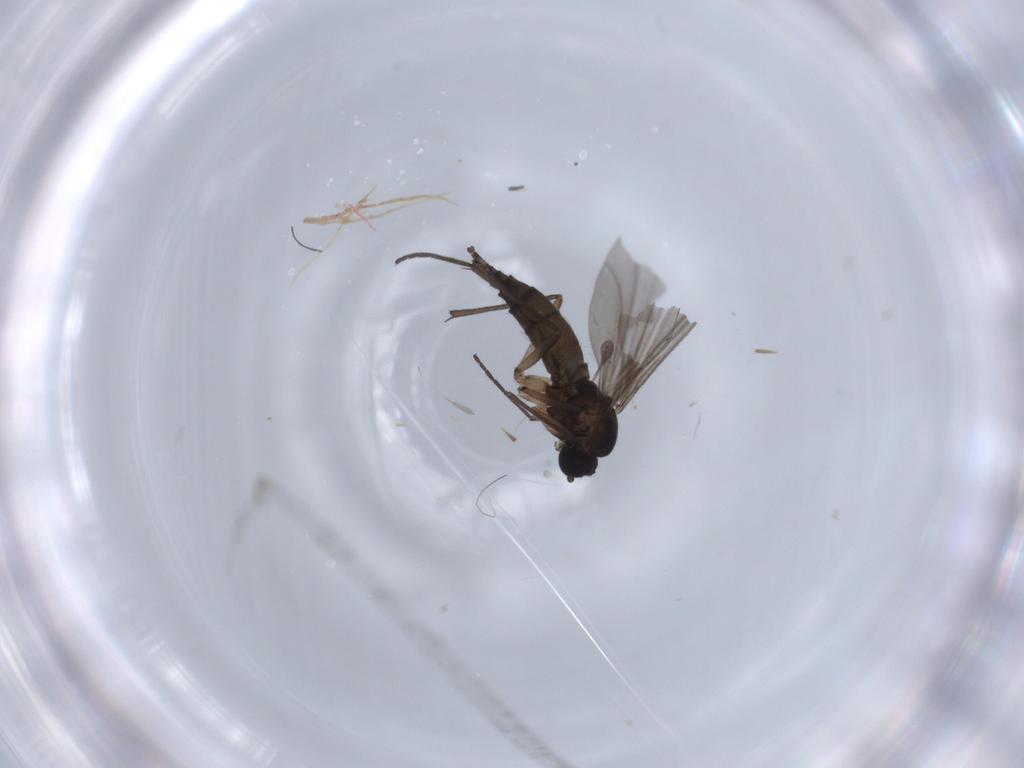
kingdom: Animalia
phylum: Arthropoda
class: Insecta
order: Diptera
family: Sciaridae
